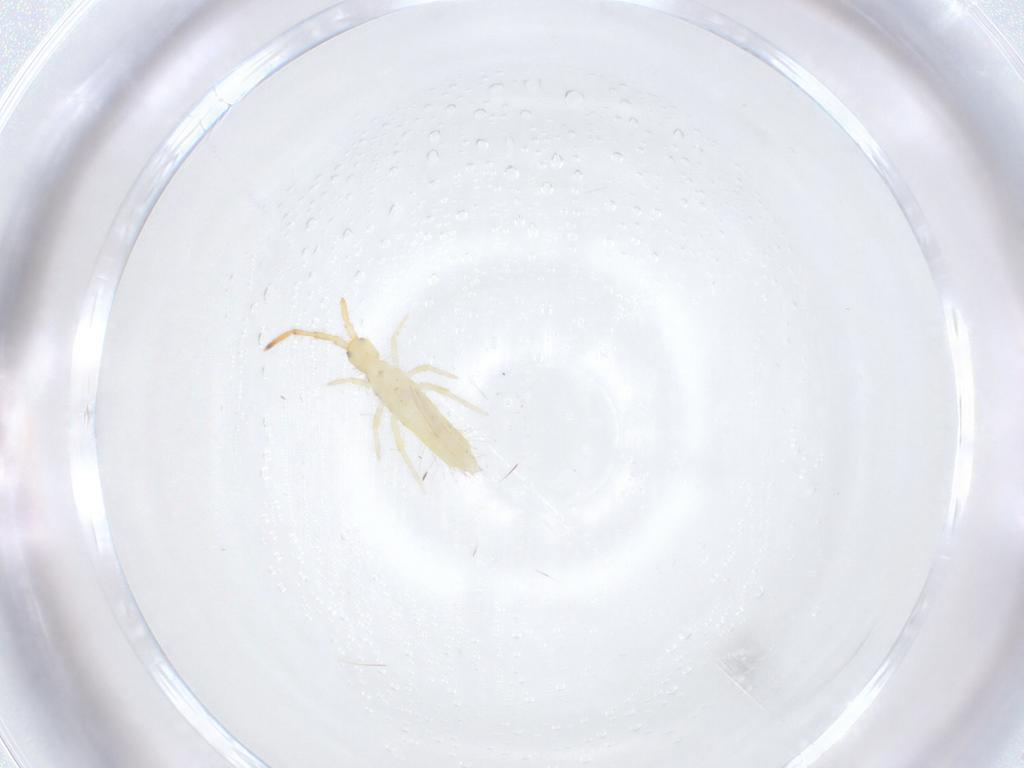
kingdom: Animalia
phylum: Arthropoda
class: Collembola
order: Entomobryomorpha
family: Entomobryidae
